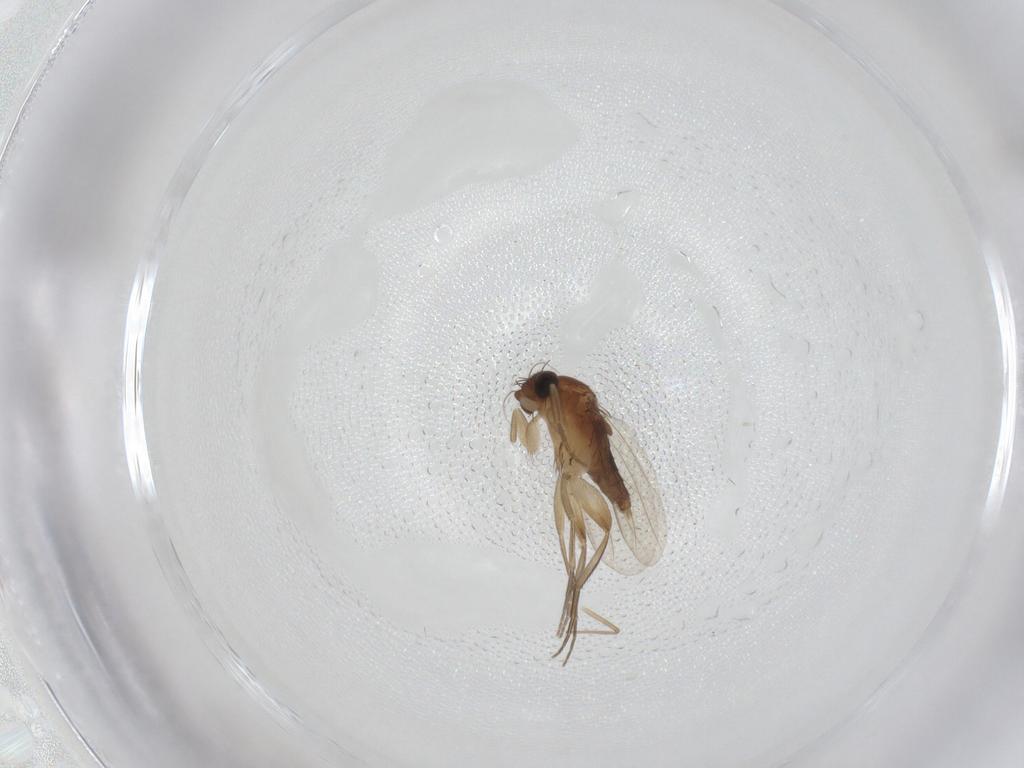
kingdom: Animalia
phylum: Arthropoda
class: Insecta
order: Diptera
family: Phoridae
